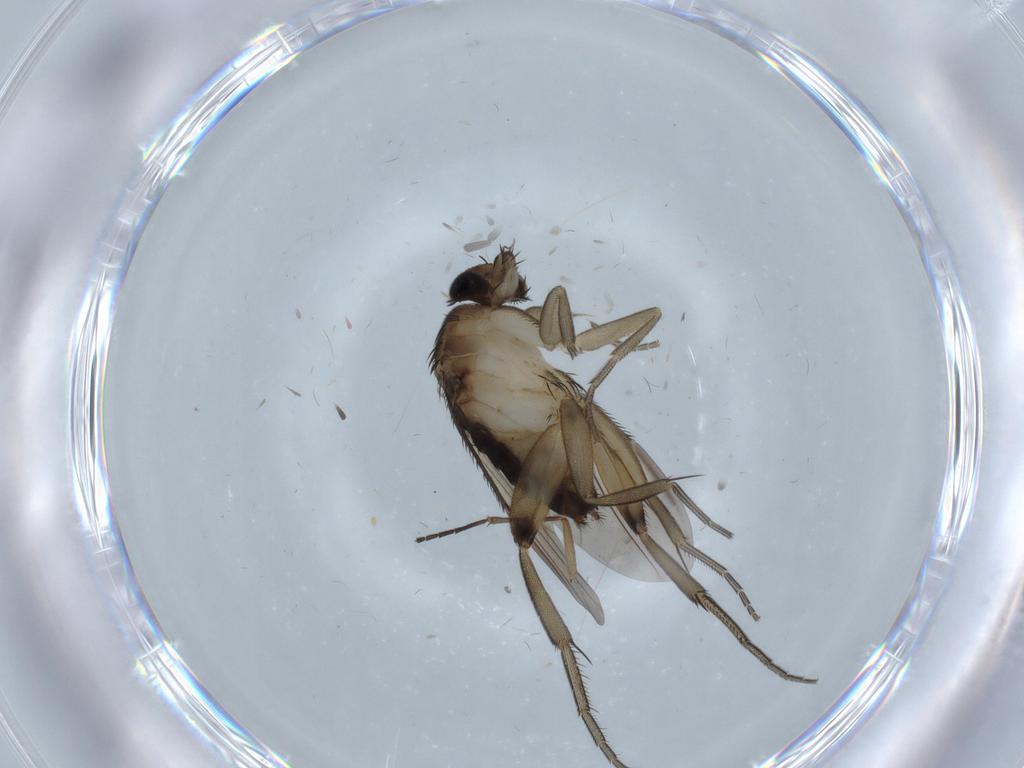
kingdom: Animalia
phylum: Arthropoda
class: Insecta
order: Diptera
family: Phoridae
